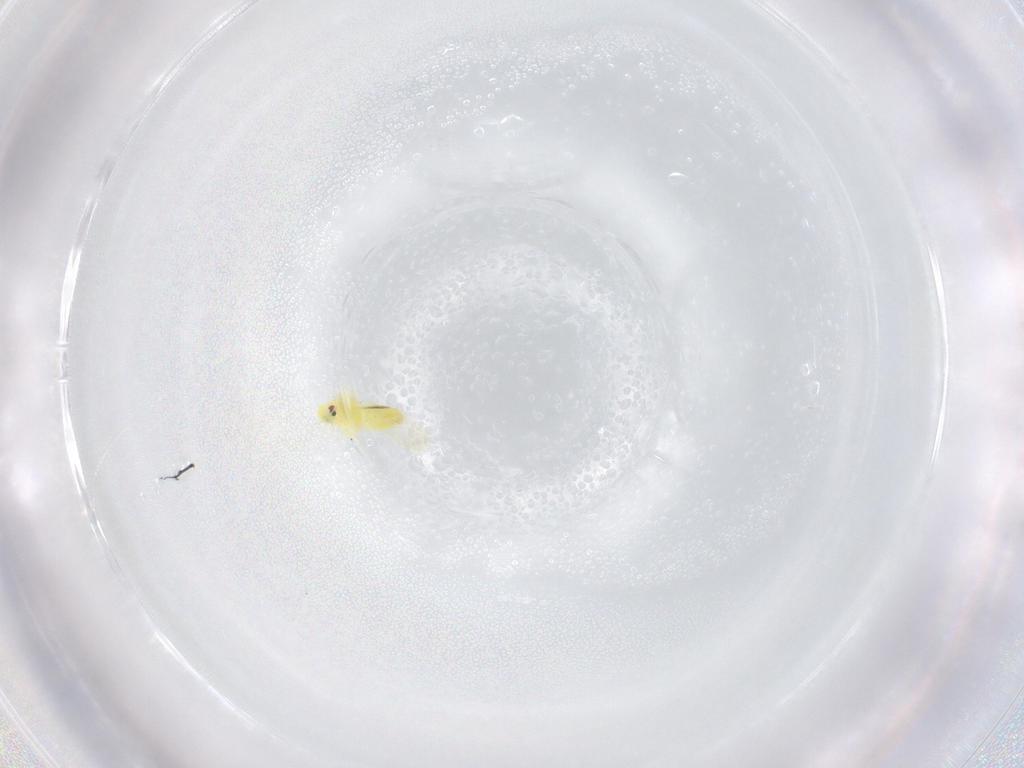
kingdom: Animalia
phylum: Arthropoda
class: Insecta
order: Hemiptera
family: Aleyrodidae
